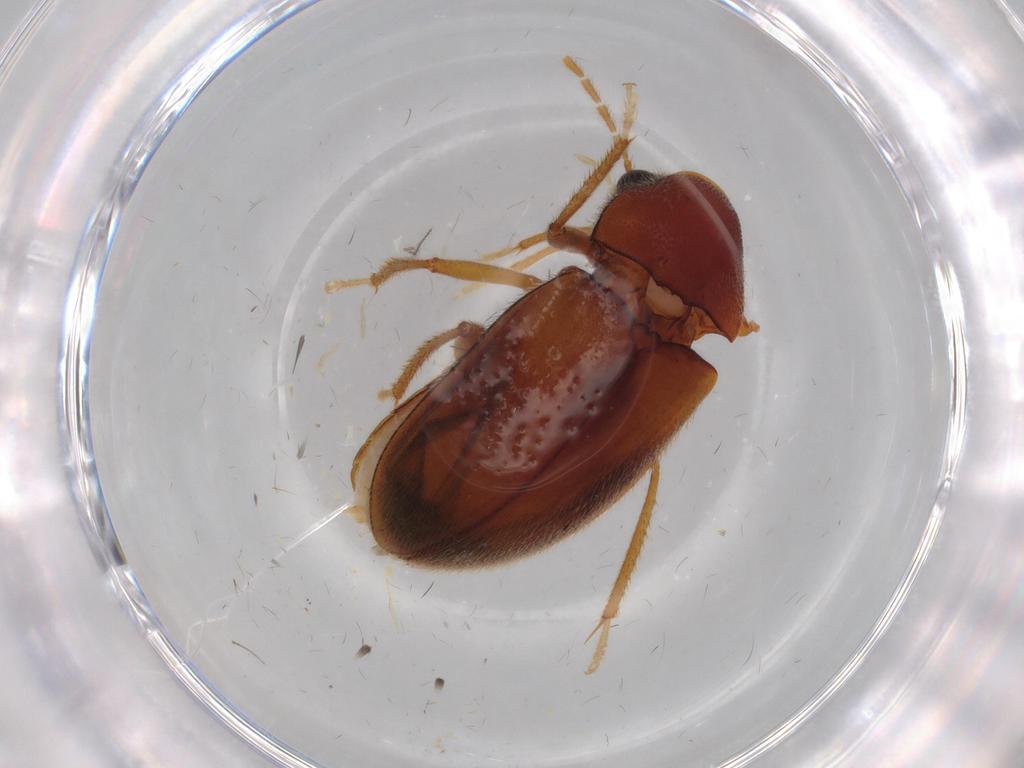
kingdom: Animalia
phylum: Arthropoda
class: Insecta
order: Coleoptera
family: Ptilodactylidae
